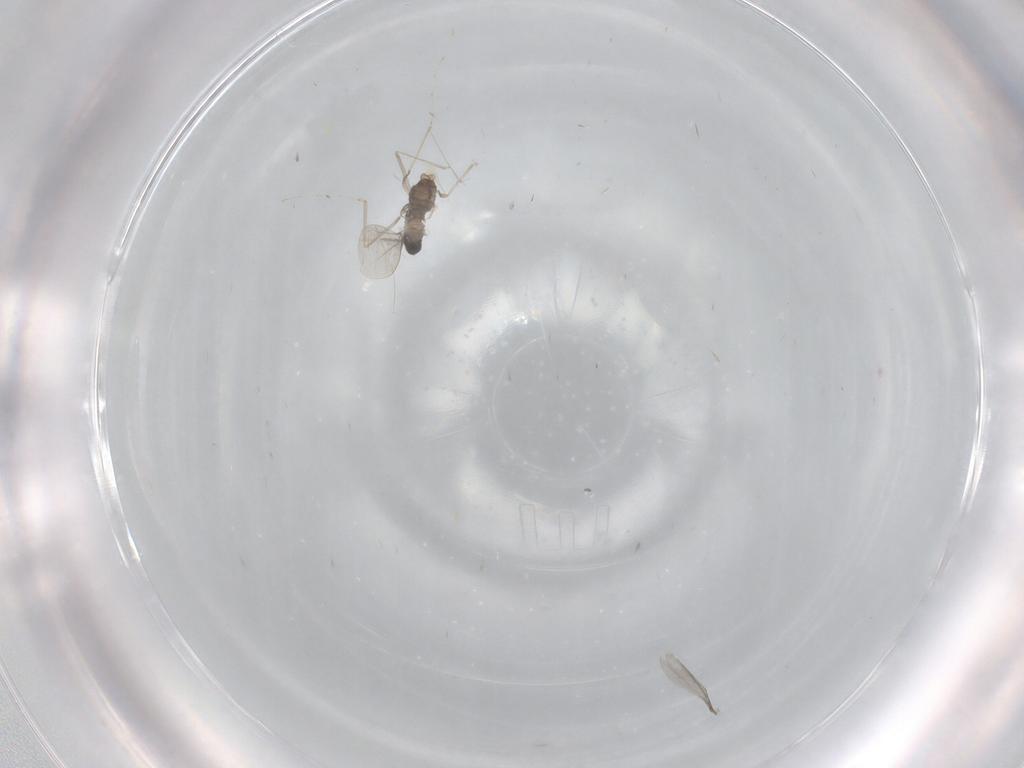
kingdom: Animalia
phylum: Arthropoda
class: Insecta
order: Diptera
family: Cecidomyiidae
